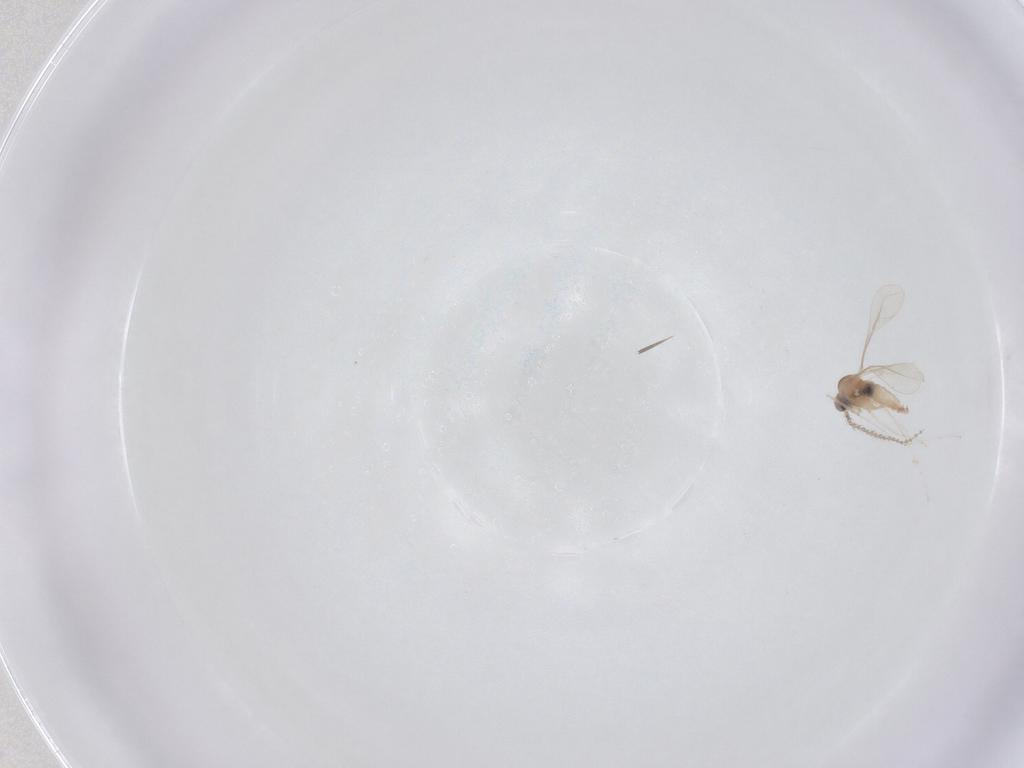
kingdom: Animalia
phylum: Arthropoda
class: Insecta
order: Diptera
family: Cecidomyiidae
